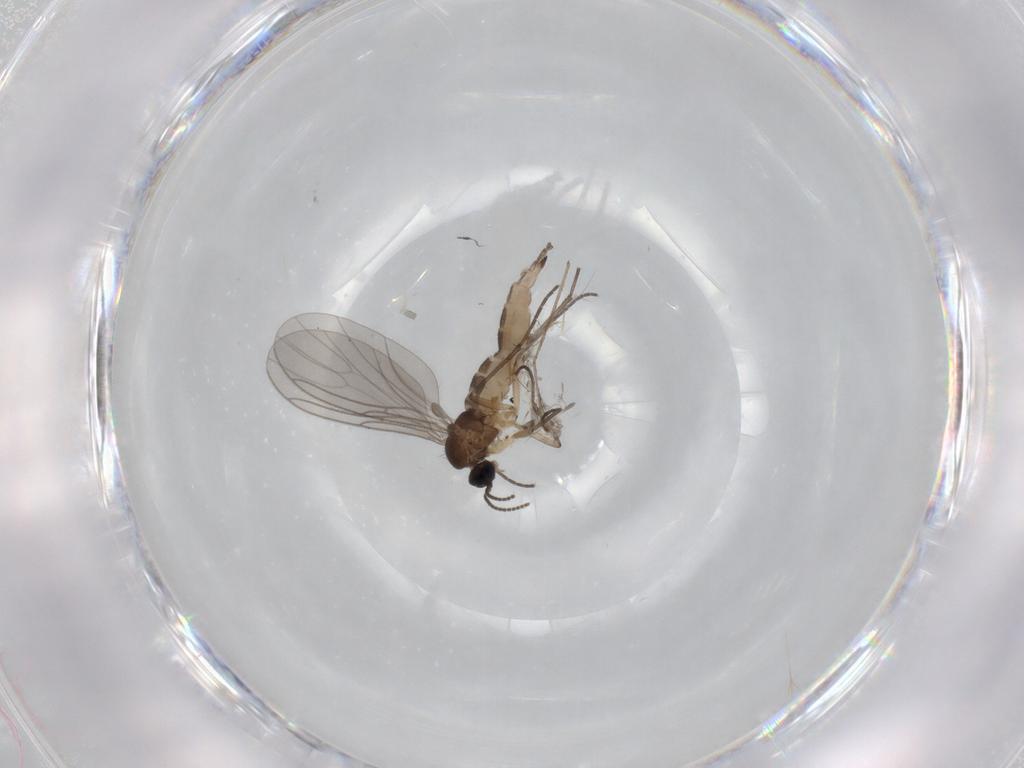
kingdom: Animalia
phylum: Arthropoda
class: Insecta
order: Diptera
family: Sciaridae
